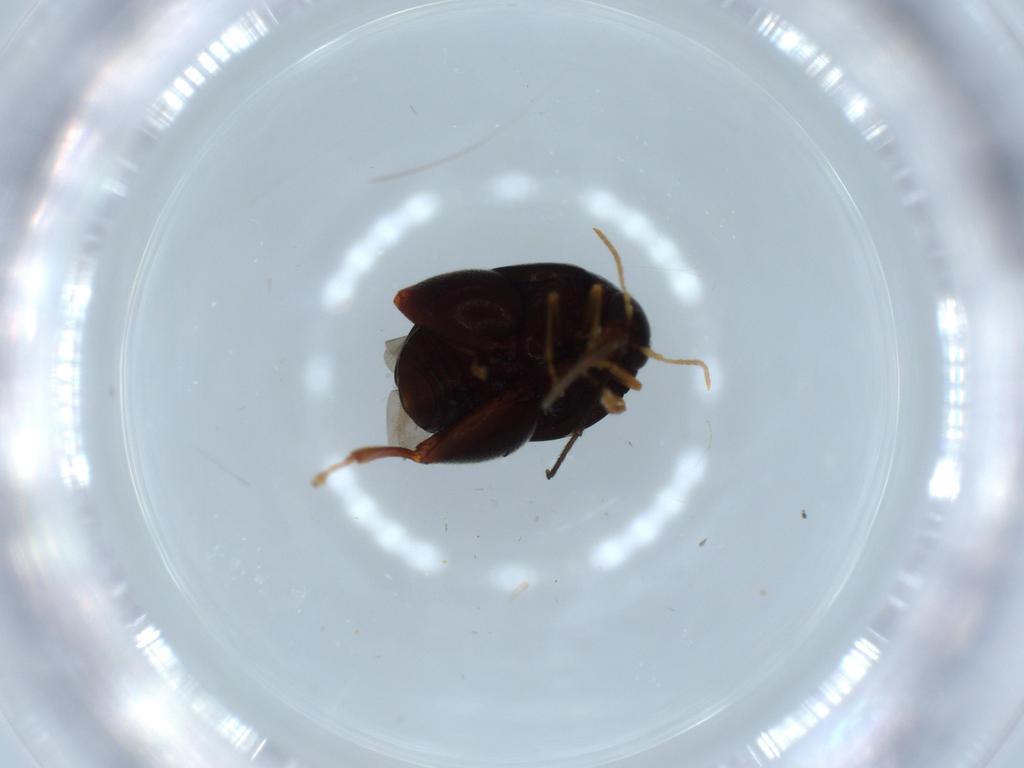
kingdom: Animalia
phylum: Arthropoda
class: Insecta
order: Coleoptera
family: Chrysomelidae
